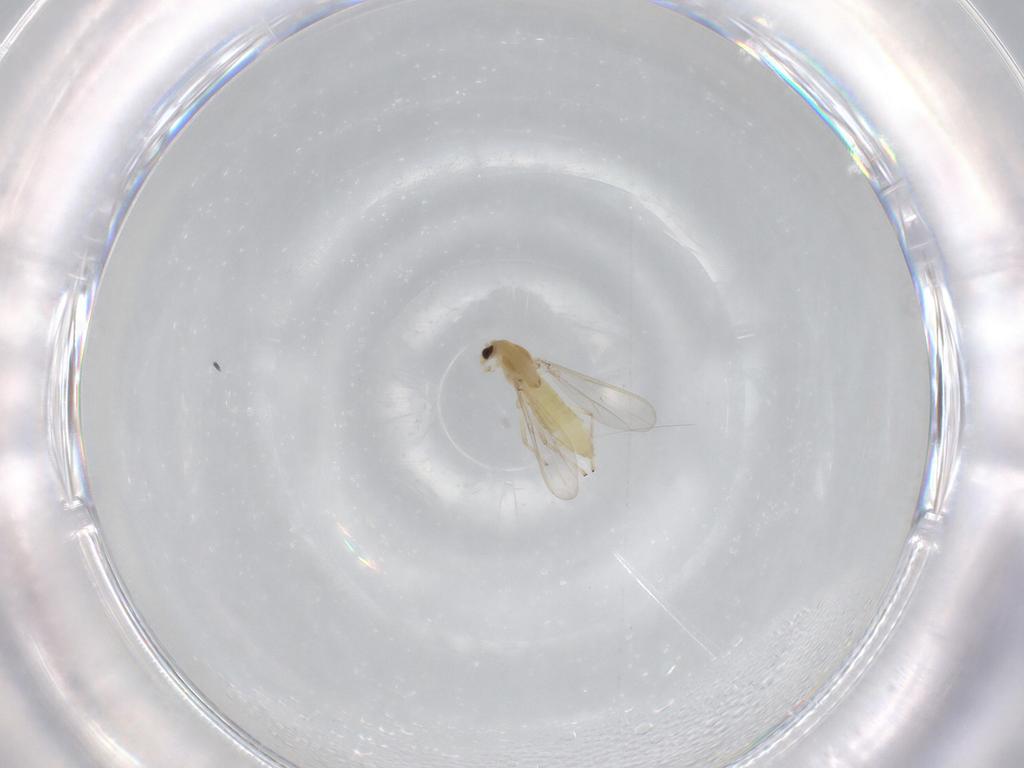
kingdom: Animalia
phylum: Arthropoda
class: Insecta
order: Diptera
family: Chironomidae
